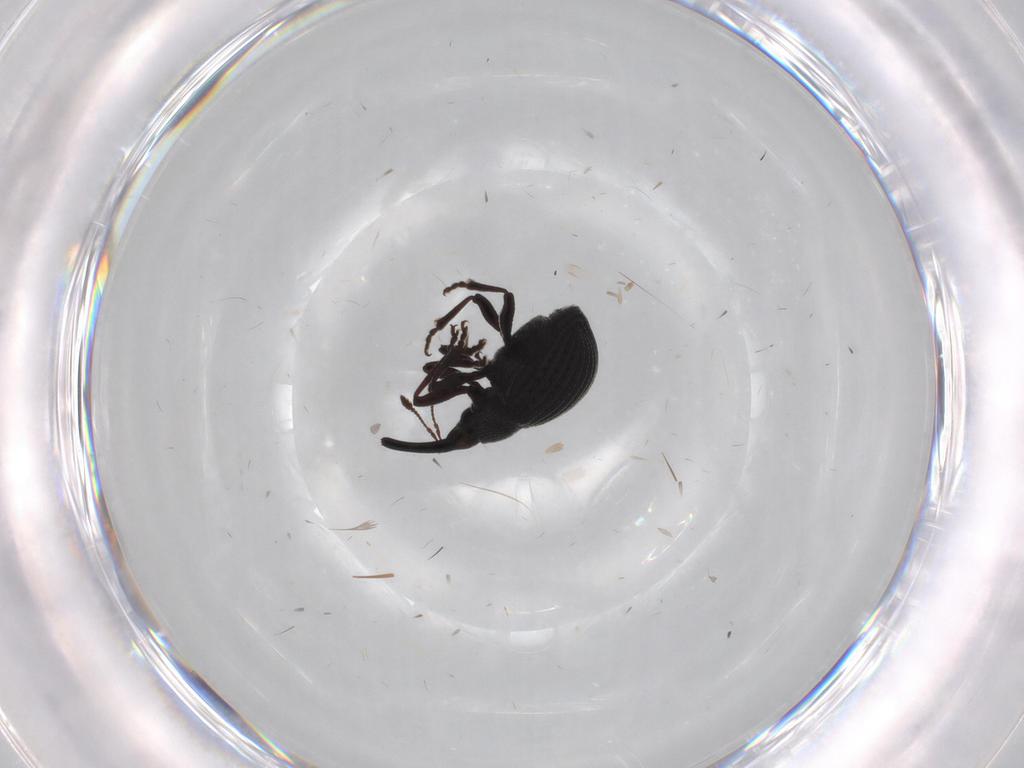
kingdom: Animalia
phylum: Arthropoda
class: Insecta
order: Coleoptera
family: Brentidae
